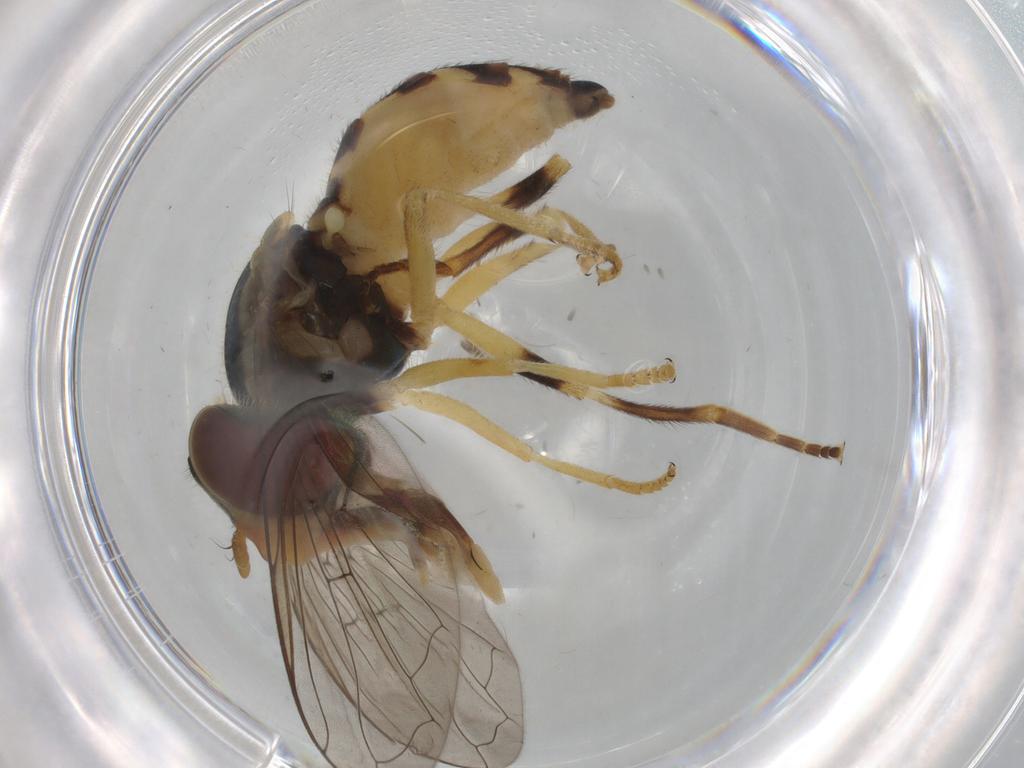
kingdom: Animalia
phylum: Arthropoda
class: Insecta
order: Diptera
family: Syrphidae
